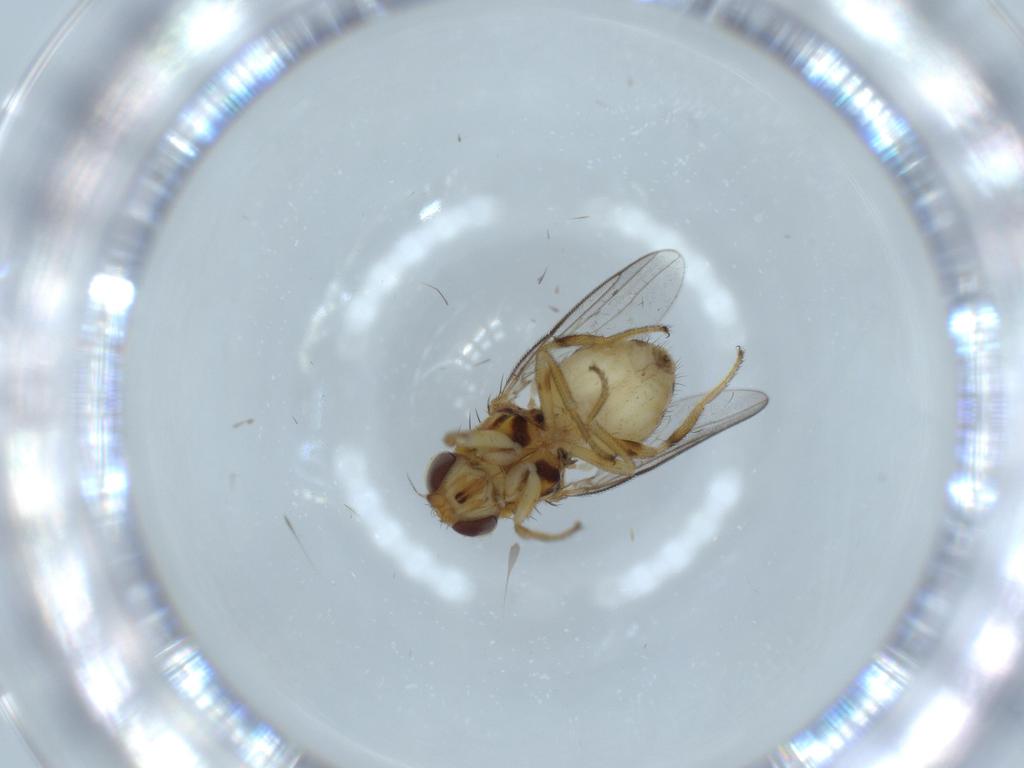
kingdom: Animalia
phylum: Arthropoda
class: Insecta
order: Diptera
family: Chloropidae
